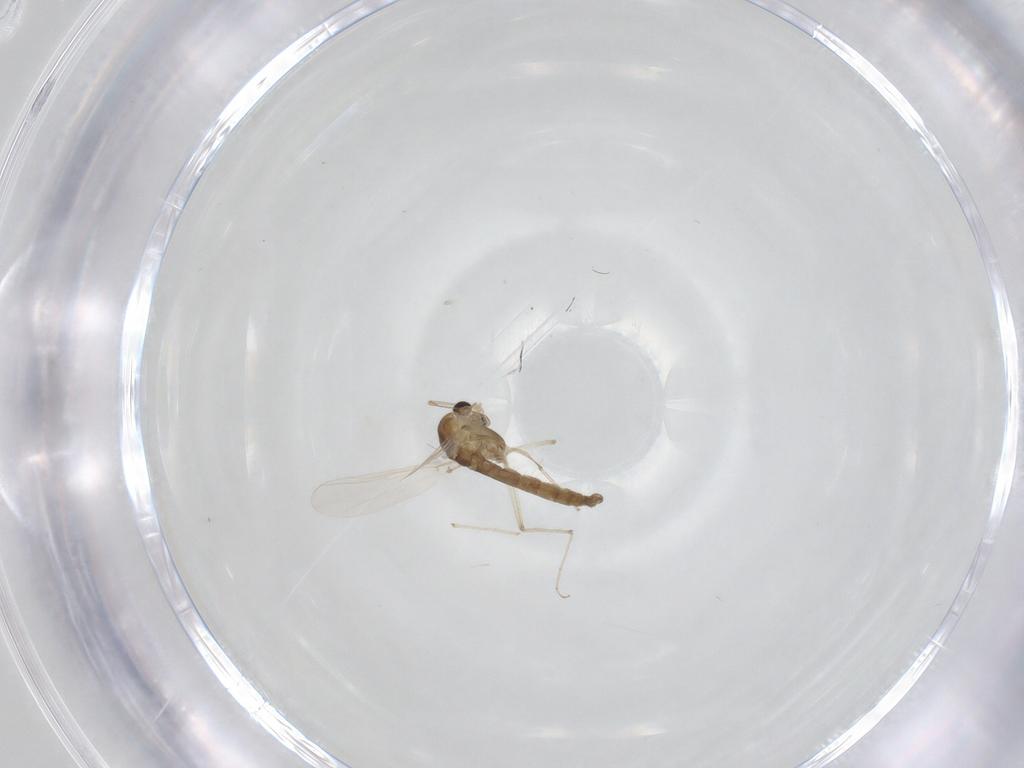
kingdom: Animalia
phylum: Arthropoda
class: Insecta
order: Diptera
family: Chironomidae
